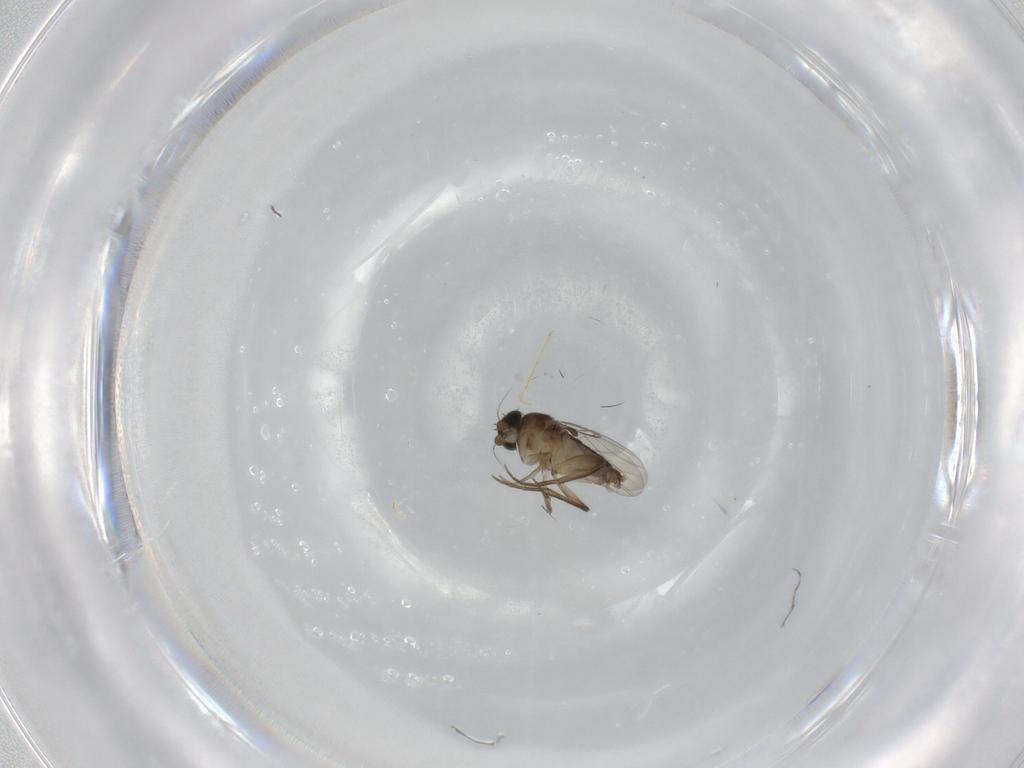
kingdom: Animalia
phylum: Arthropoda
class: Insecta
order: Diptera
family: Phoridae
